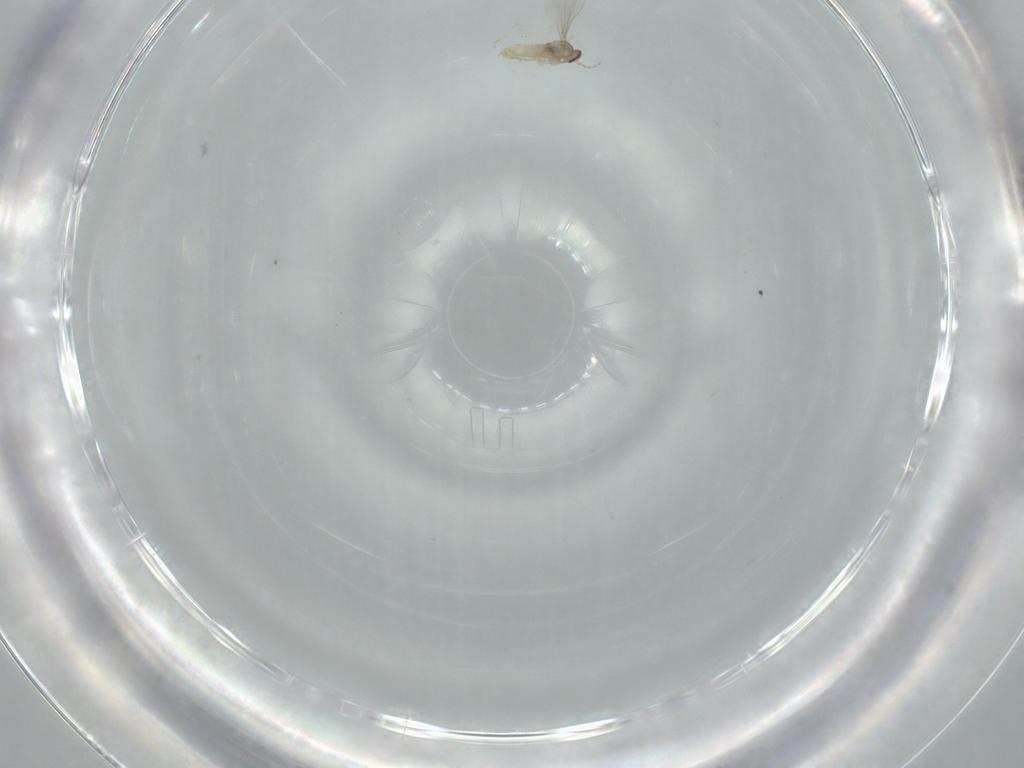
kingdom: Animalia
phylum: Arthropoda
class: Insecta
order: Diptera
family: Cecidomyiidae
